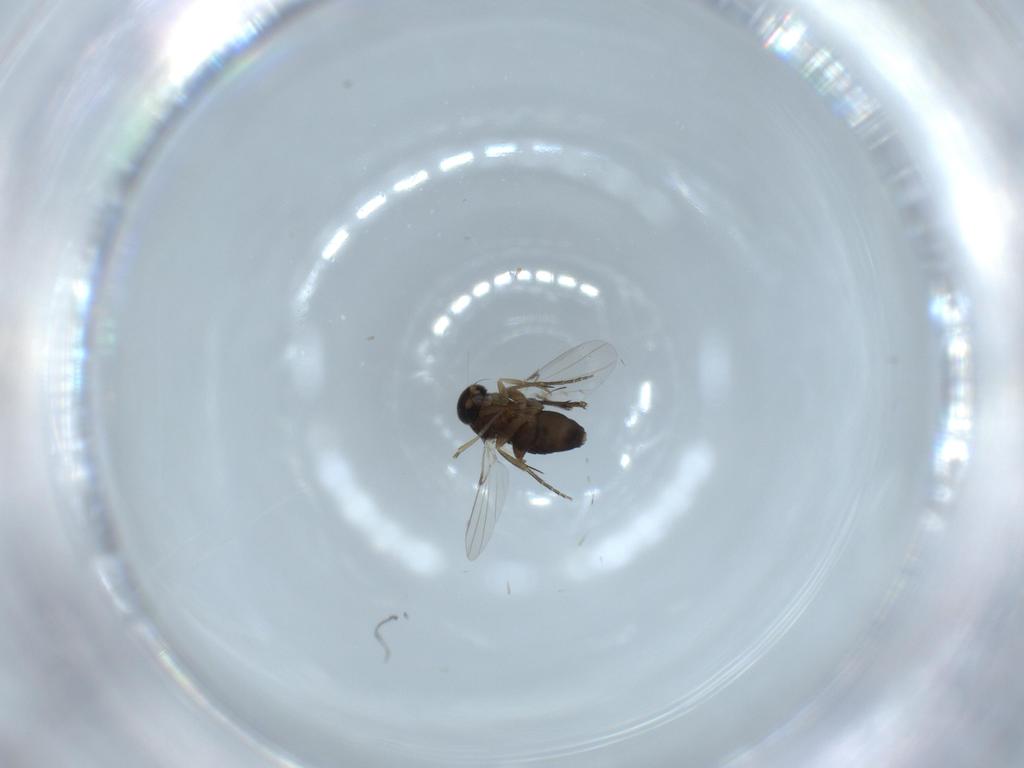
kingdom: Animalia
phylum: Arthropoda
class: Insecta
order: Diptera
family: Phoridae
